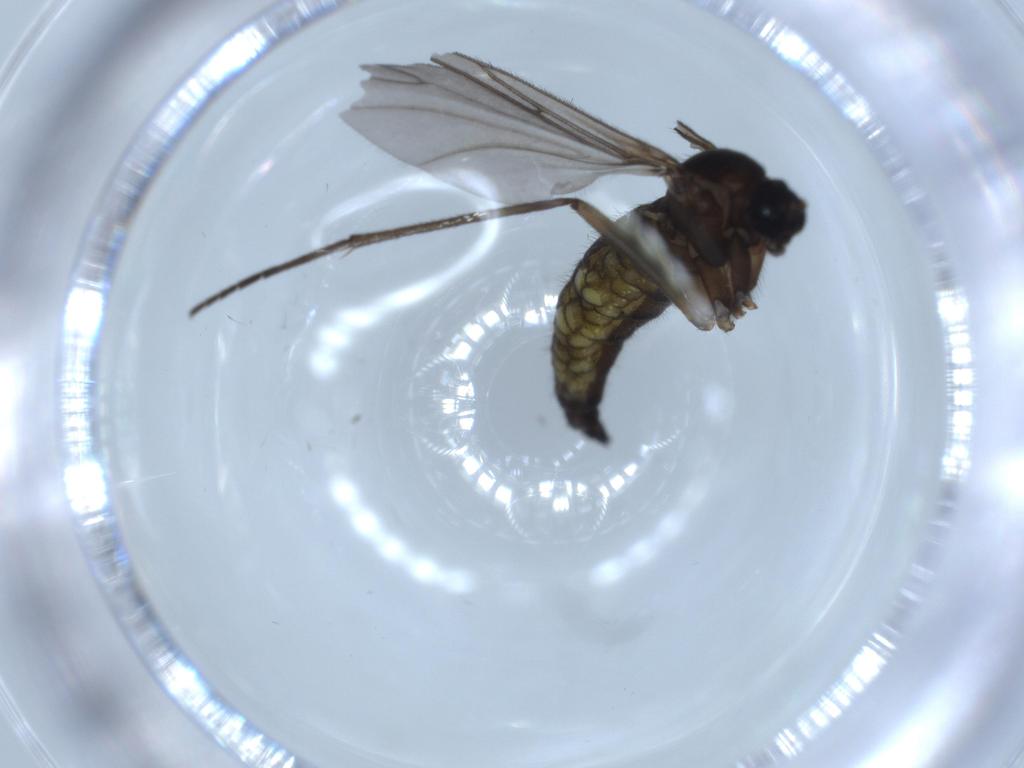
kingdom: Animalia
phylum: Arthropoda
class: Insecta
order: Diptera
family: Sciaridae
